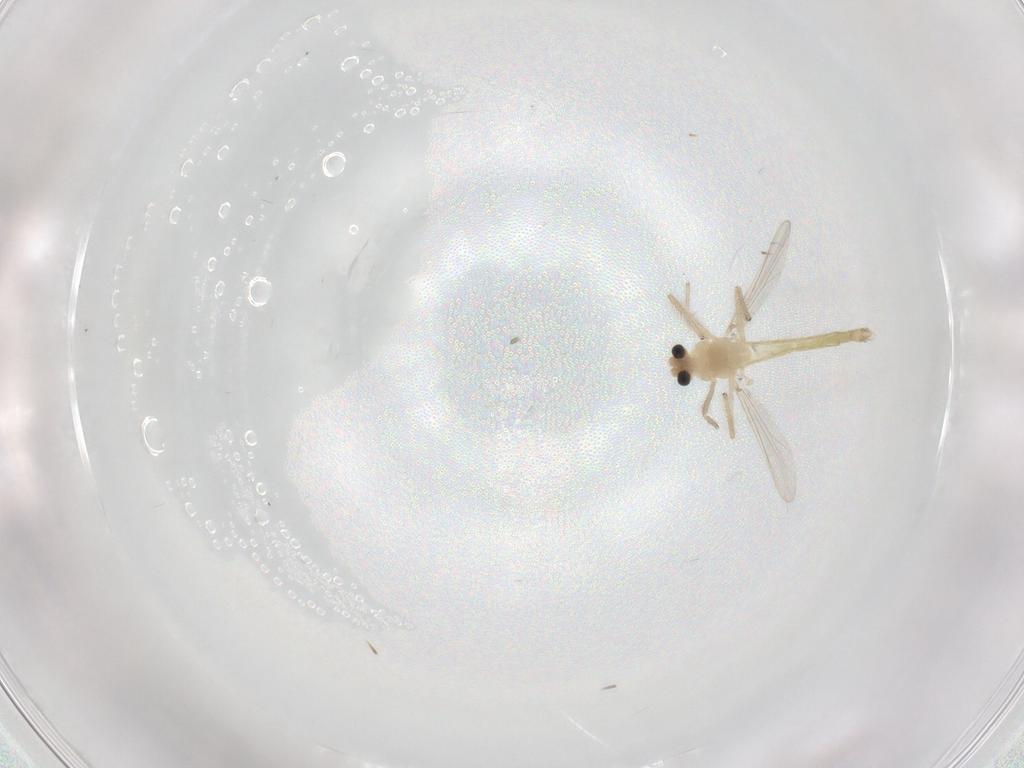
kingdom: Animalia
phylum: Arthropoda
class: Insecta
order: Diptera
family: Chironomidae
